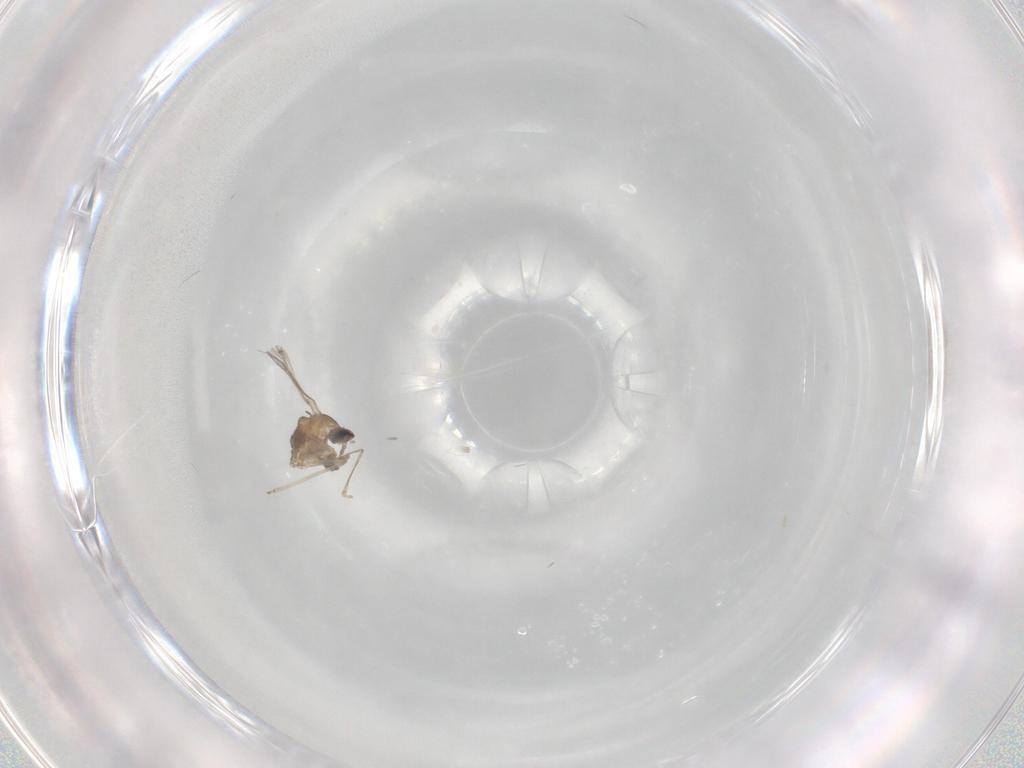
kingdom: Animalia
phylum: Arthropoda
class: Insecta
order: Diptera
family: Cecidomyiidae
